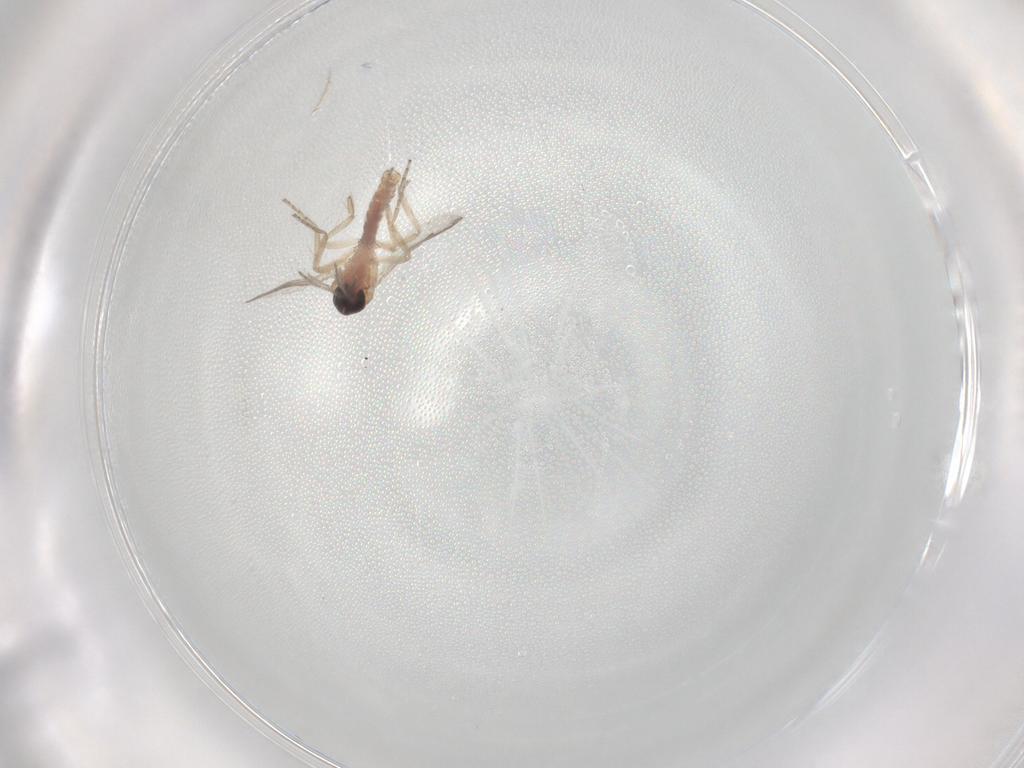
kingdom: Animalia
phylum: Arthropoda
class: Insecta
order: Diptera
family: Ceratopogonidae
